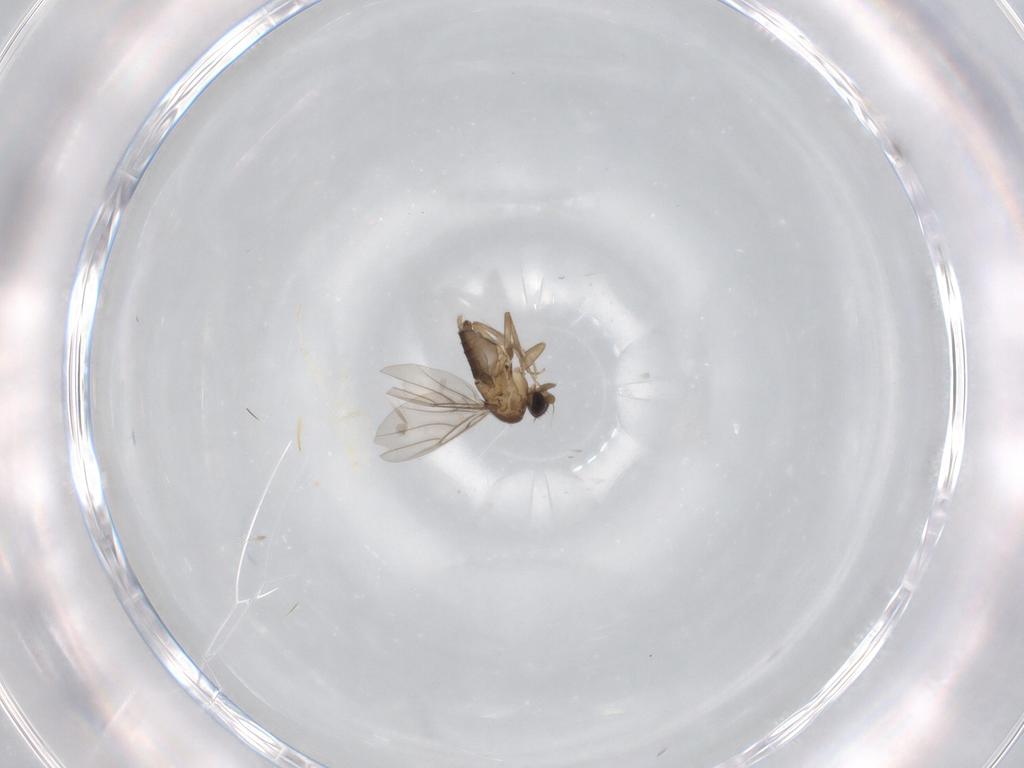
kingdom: Animalia
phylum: Arthropoda
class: Insecta
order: Diptera
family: Phoridae
